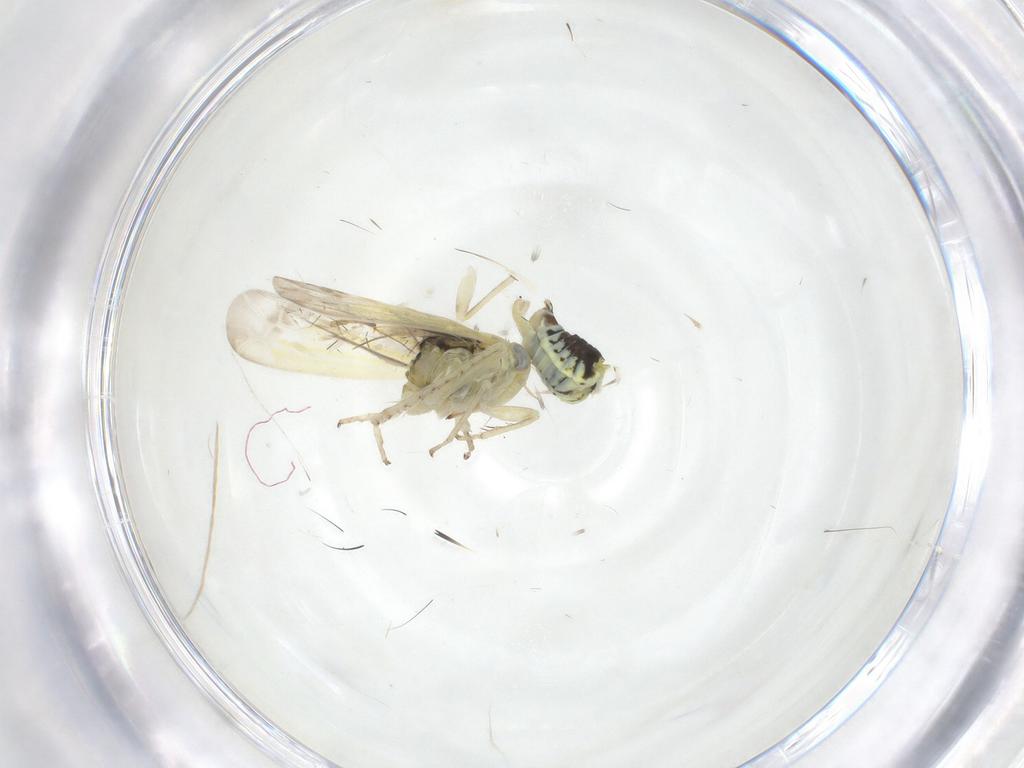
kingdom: Animalia
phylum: Arthropoda
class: Insecta
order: Hemiptera
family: Cicadellidae
